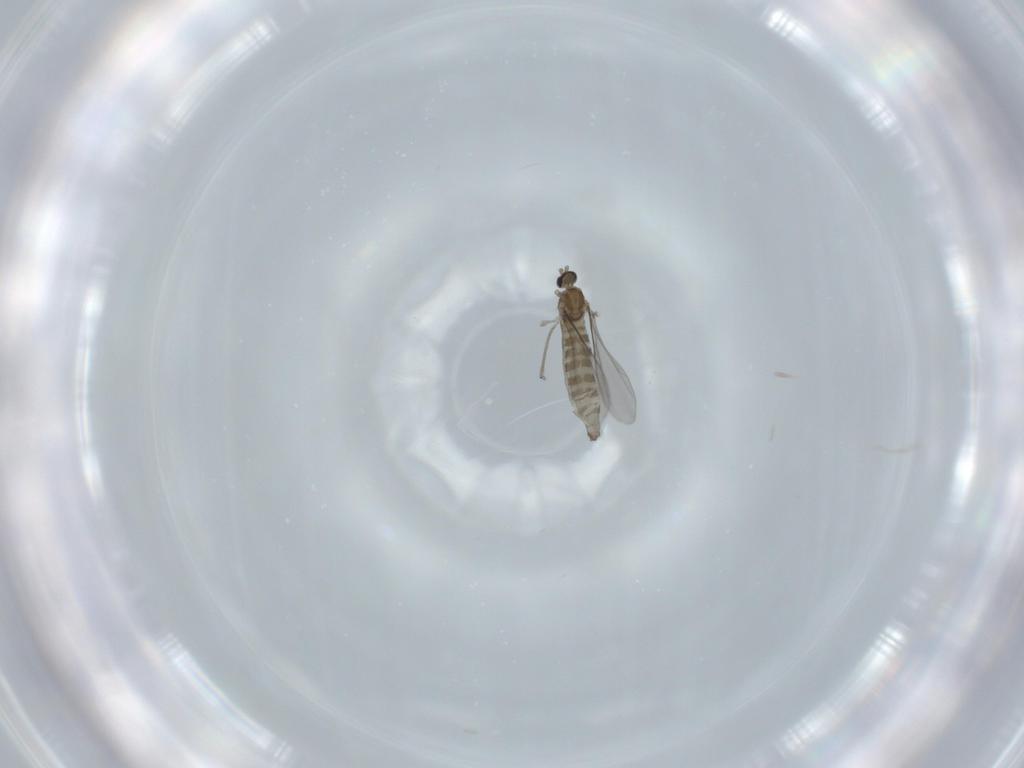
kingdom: Animalia
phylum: Arthropoda
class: Insecta
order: Diptera
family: Cecidomyiidae
